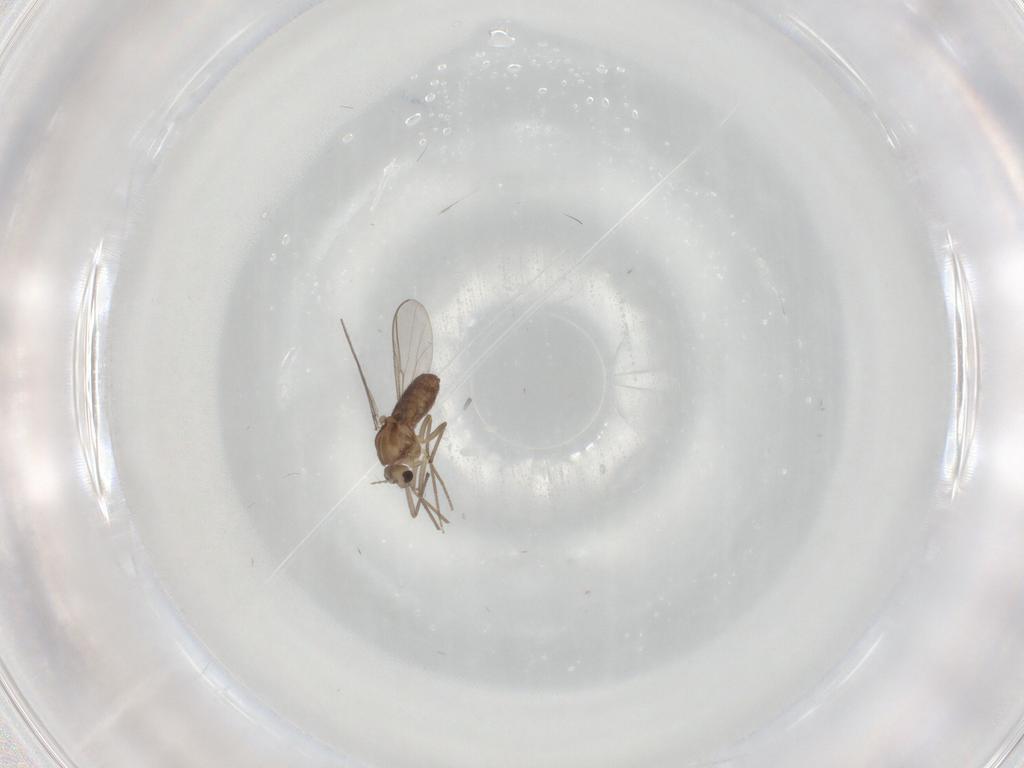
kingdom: Animalia
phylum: Arthropoda
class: Insecta
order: Diptera
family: Chironomidae
